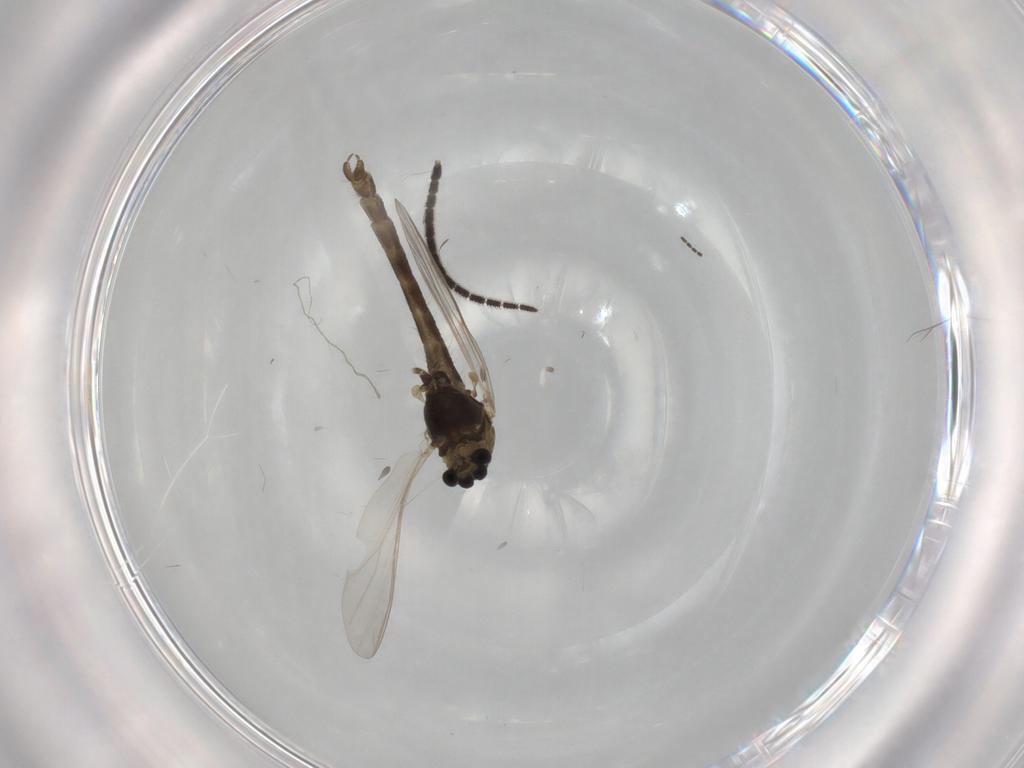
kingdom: Animalia
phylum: Arthropoda
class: Insecta
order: Diptera
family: Chironomidae
